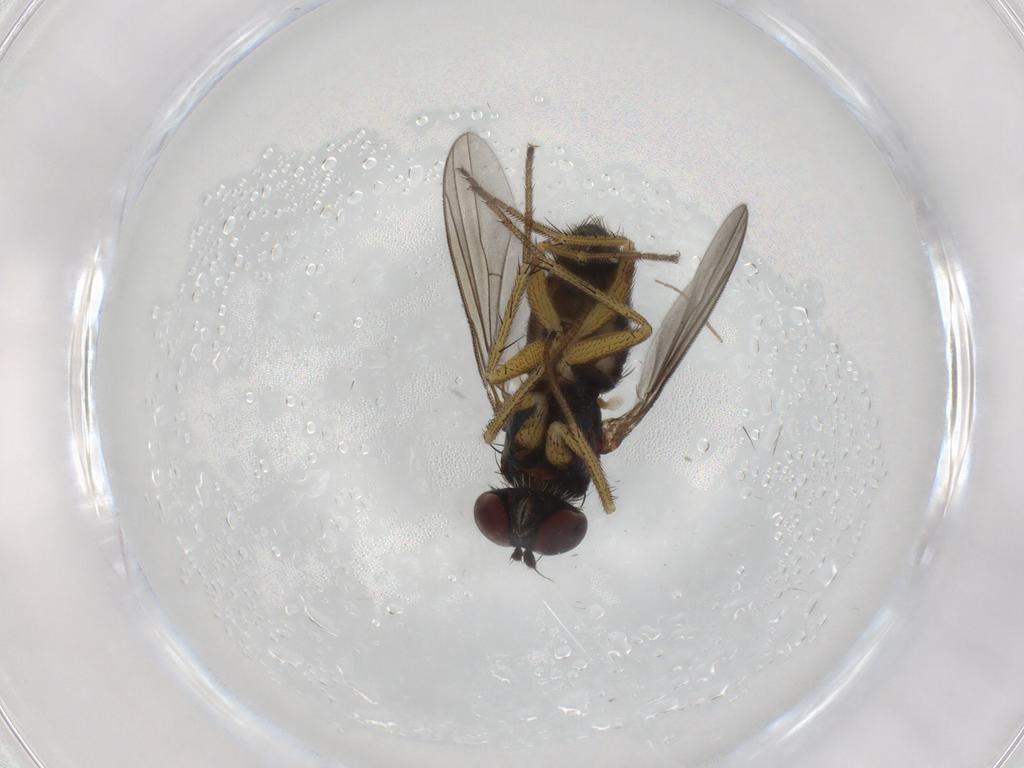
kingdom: Animalia
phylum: Arthropoda
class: Insecta
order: Diptera
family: Dolichopodidae
